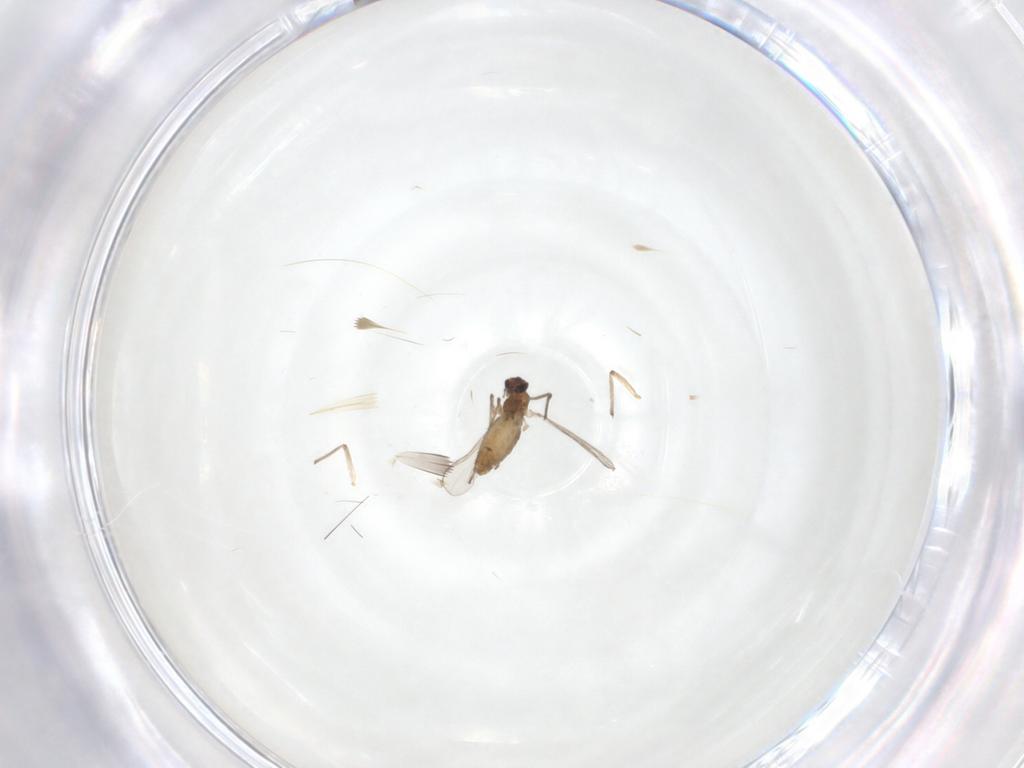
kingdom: Animalia
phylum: Arthropoda
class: Insecta
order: Diptera
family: Chironomidae
